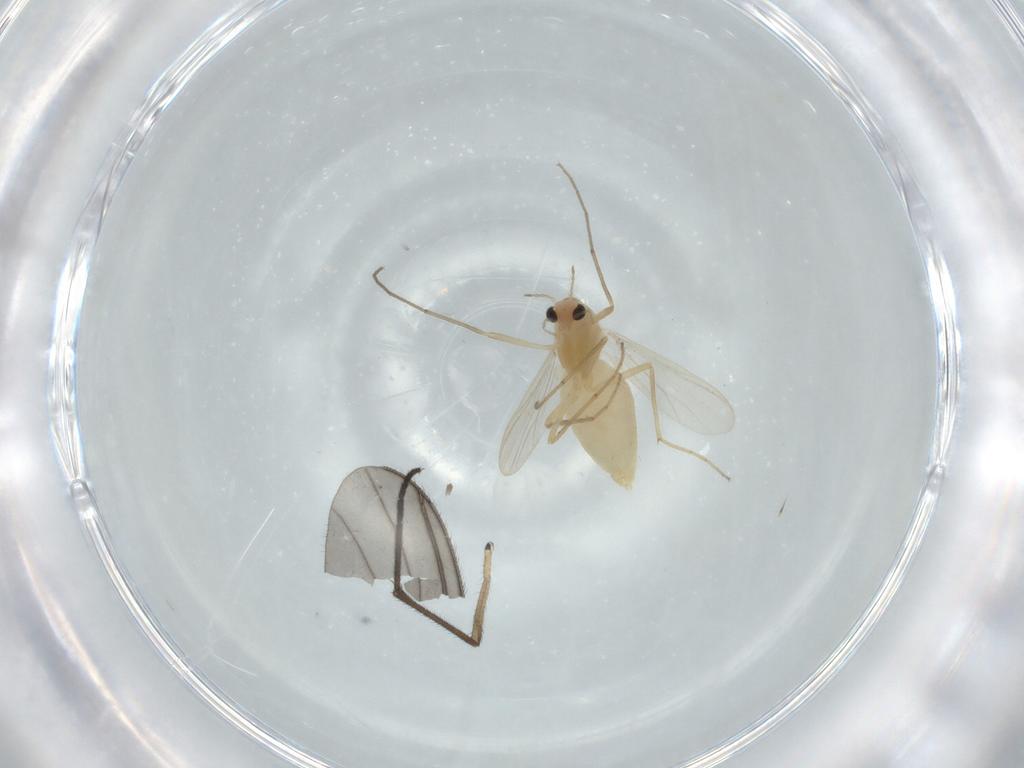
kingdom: Animalia
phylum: Arthropoda
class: Insecta
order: Diptera
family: Chironomidae
